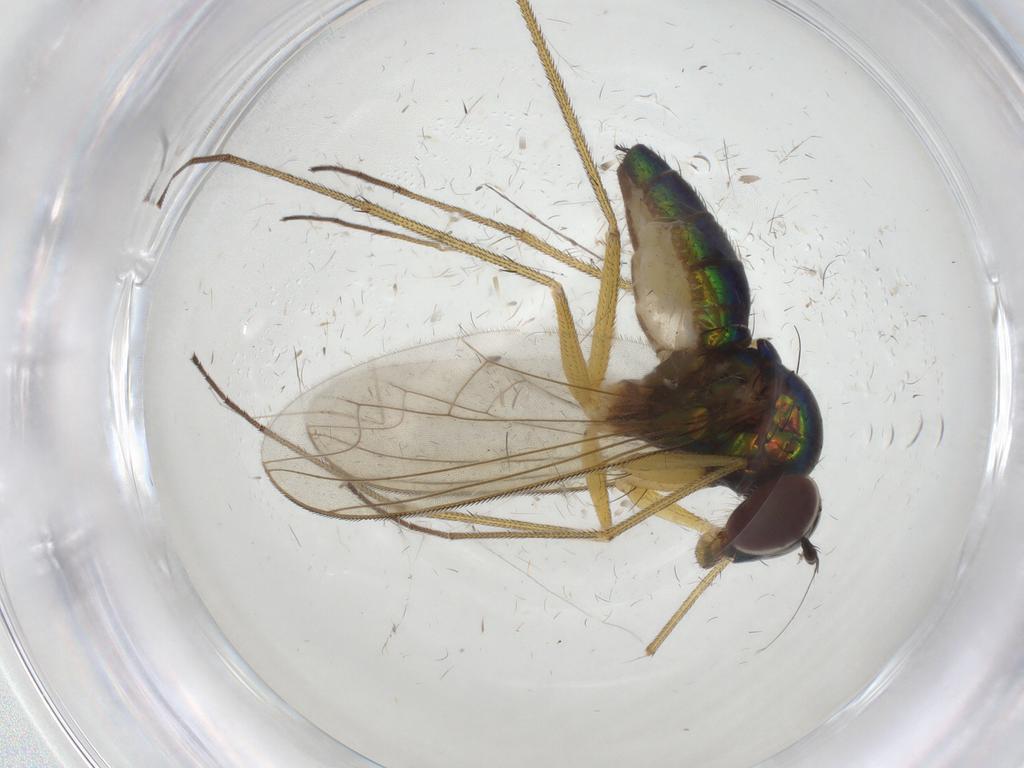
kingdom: Animalia
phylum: Arthropoda
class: Insecta
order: Diptera
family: Dolichopodidae
